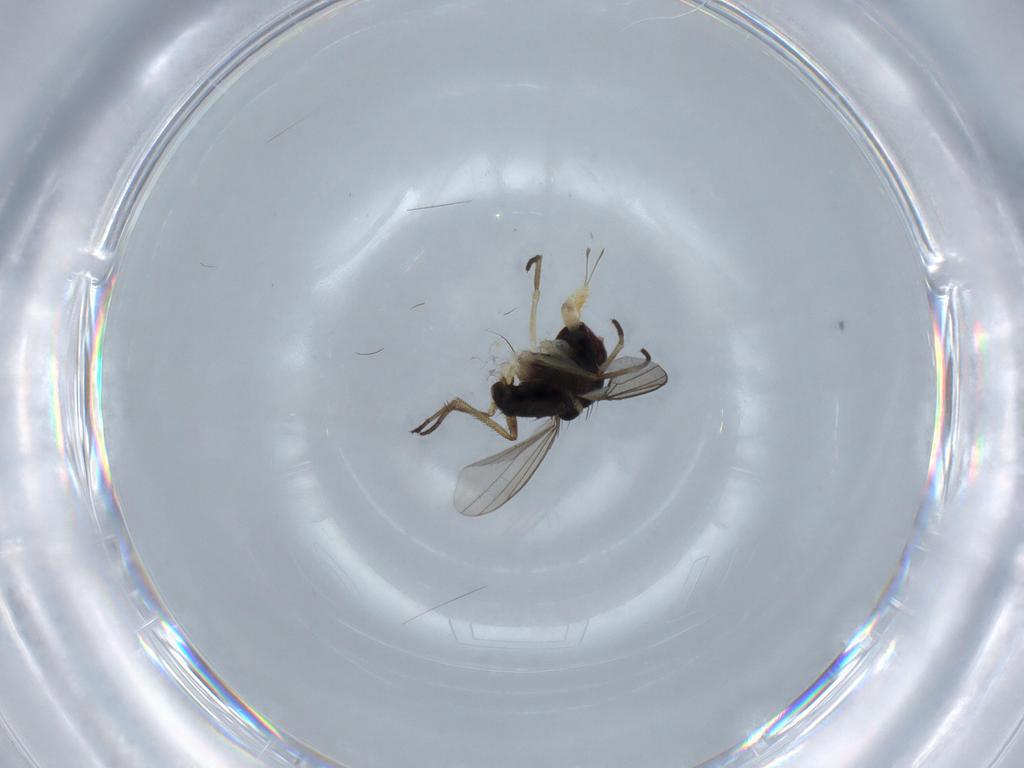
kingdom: Animalia
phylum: Arthropoda
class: Insecta
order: Diptera
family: Dolichopodidae
